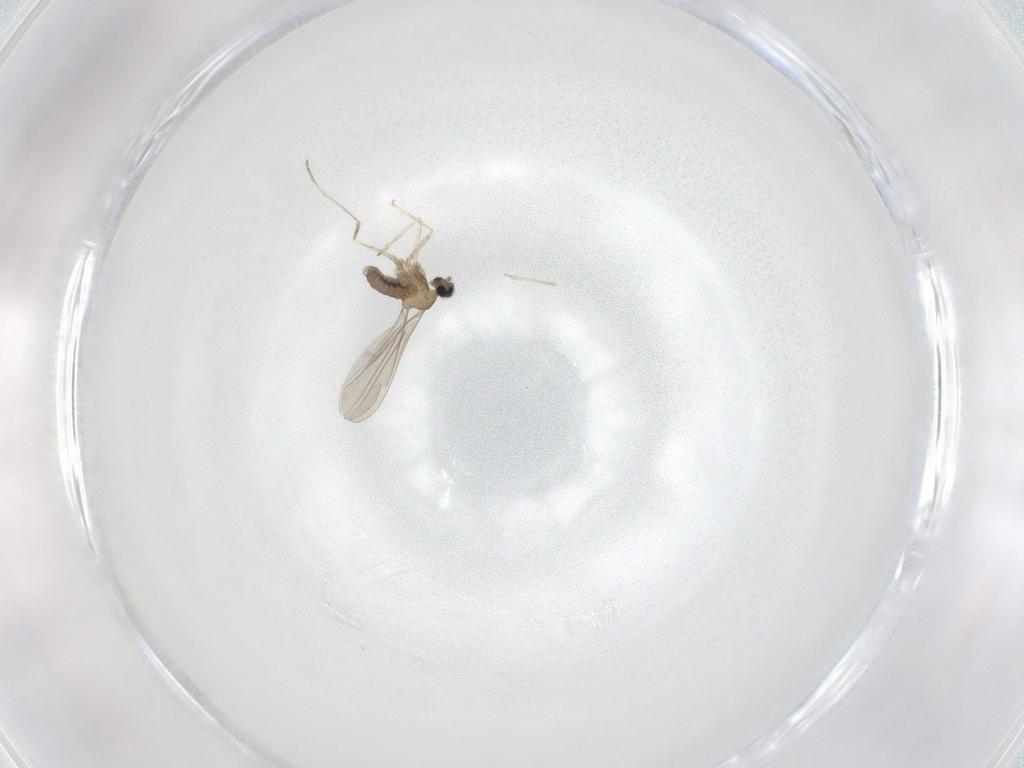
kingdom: Animalia
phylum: Arthropoda
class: Insecta
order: Diptera
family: Cecidomyiidae
